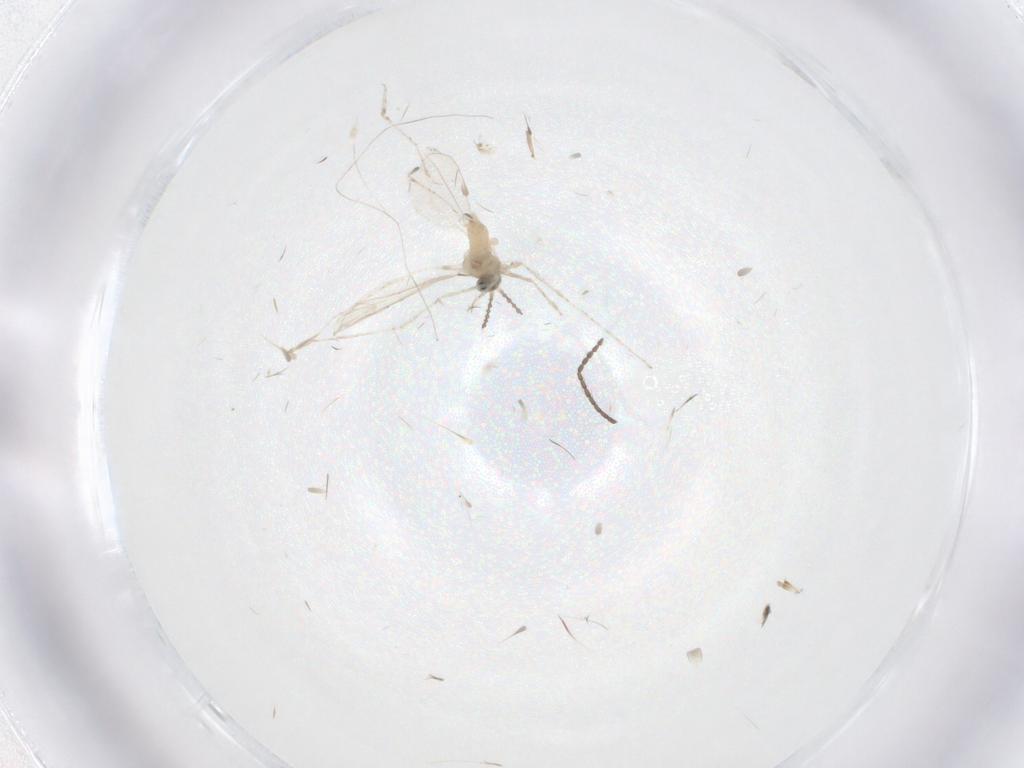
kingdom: Animalia
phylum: Arthropoda
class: Insecta
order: Diptera
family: Cecidomyiidae
